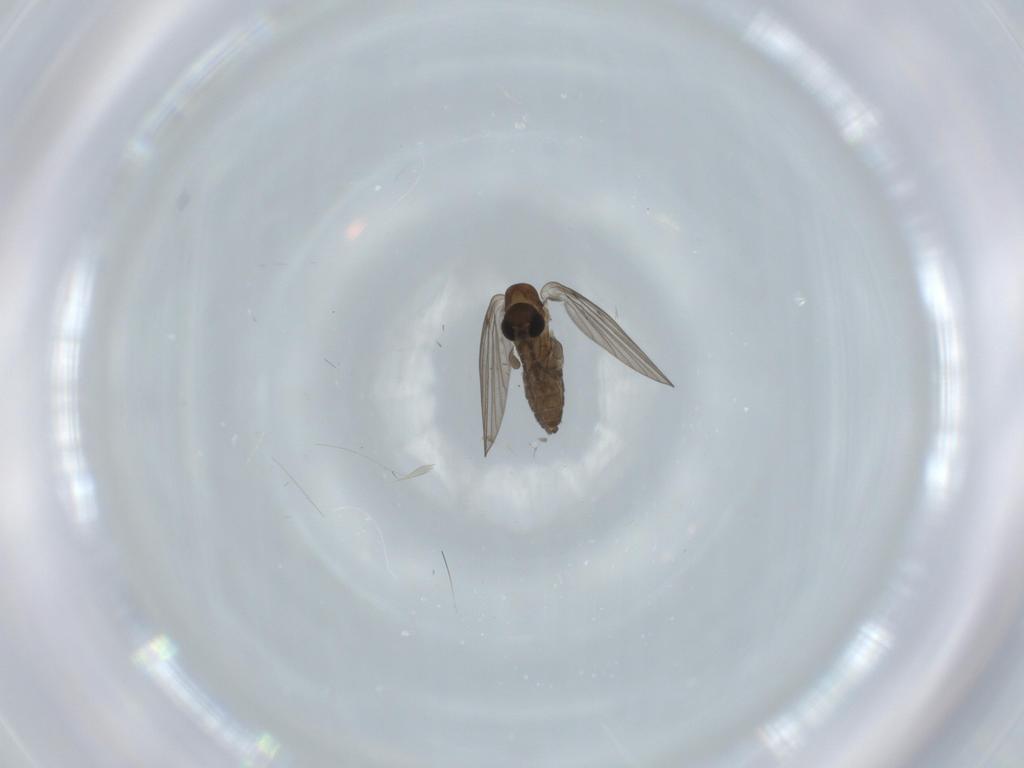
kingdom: Animalia
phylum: Arthropoda
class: Insecta
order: Diptera
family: Psychodidae
